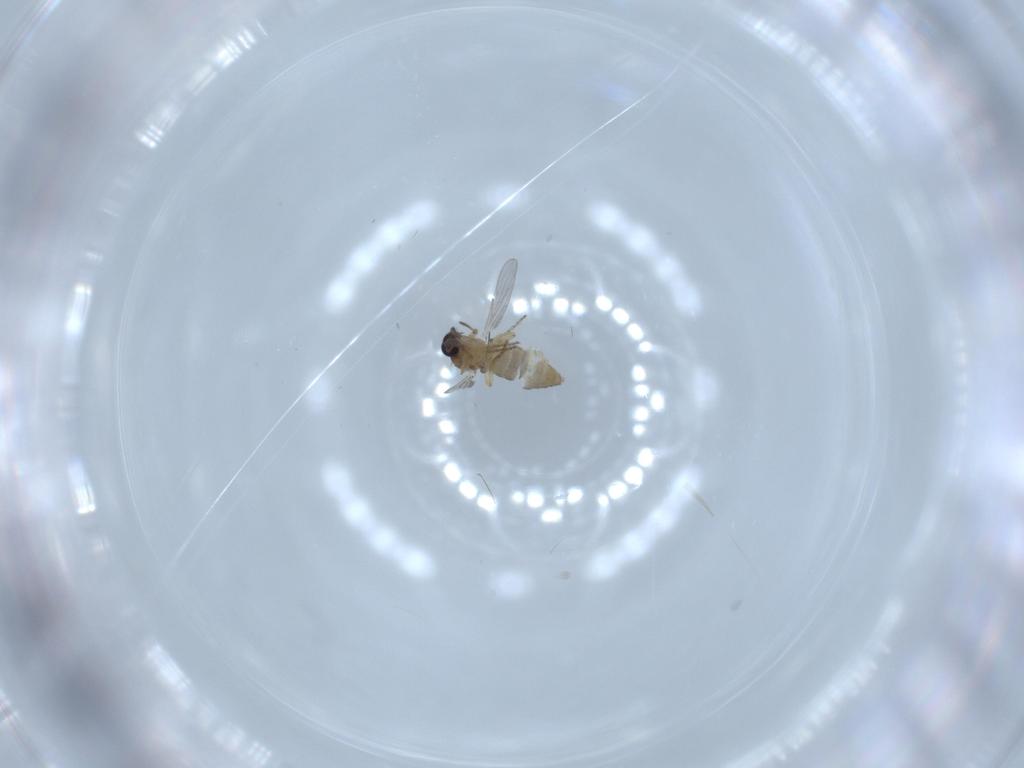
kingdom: Animalia
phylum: Arthropoda
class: Insecta
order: Diptera
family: Ceratopogonidae
